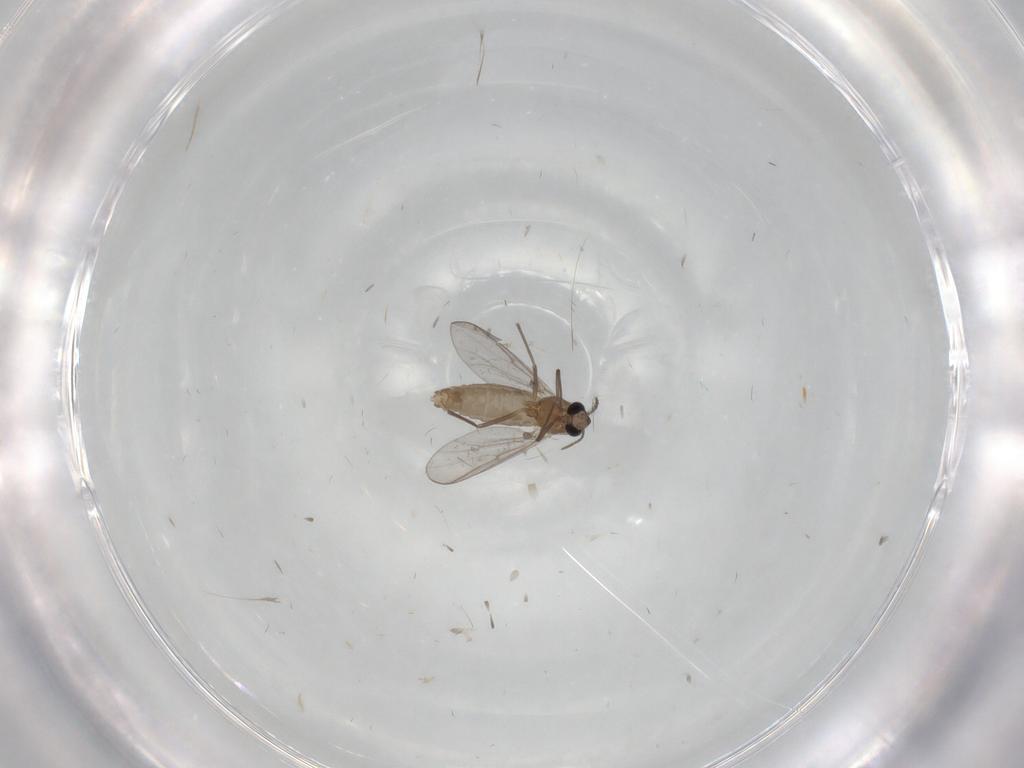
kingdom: Animalia
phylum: Arthropoda
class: Insecta
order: Diptera
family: Chironomidae
